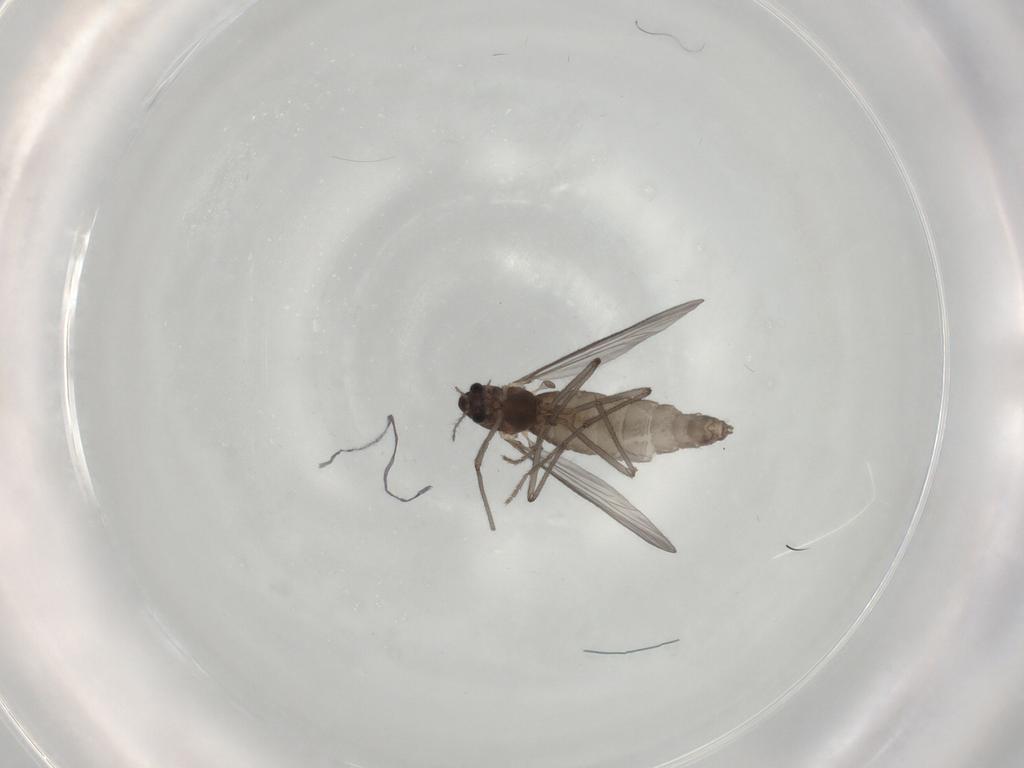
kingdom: Animalia
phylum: Arthropoda
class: Insecta
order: Diptera
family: Chironomidae
